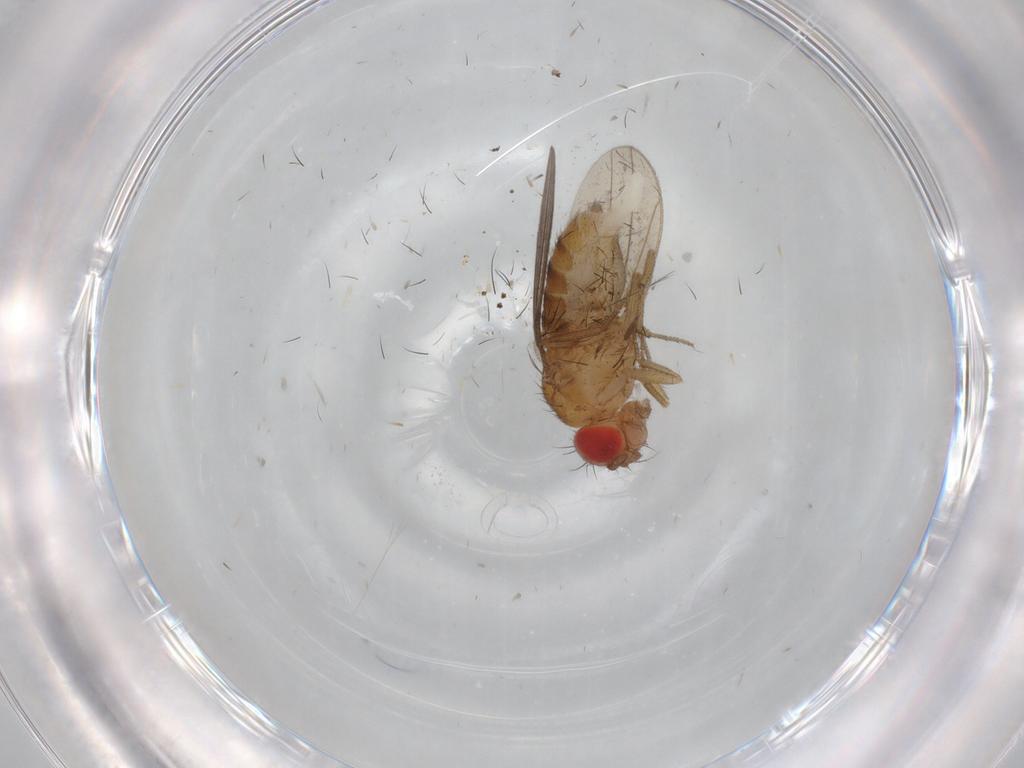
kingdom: Animalia
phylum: Arthropoda
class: Insecta
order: Diptera
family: Drosophilidae
